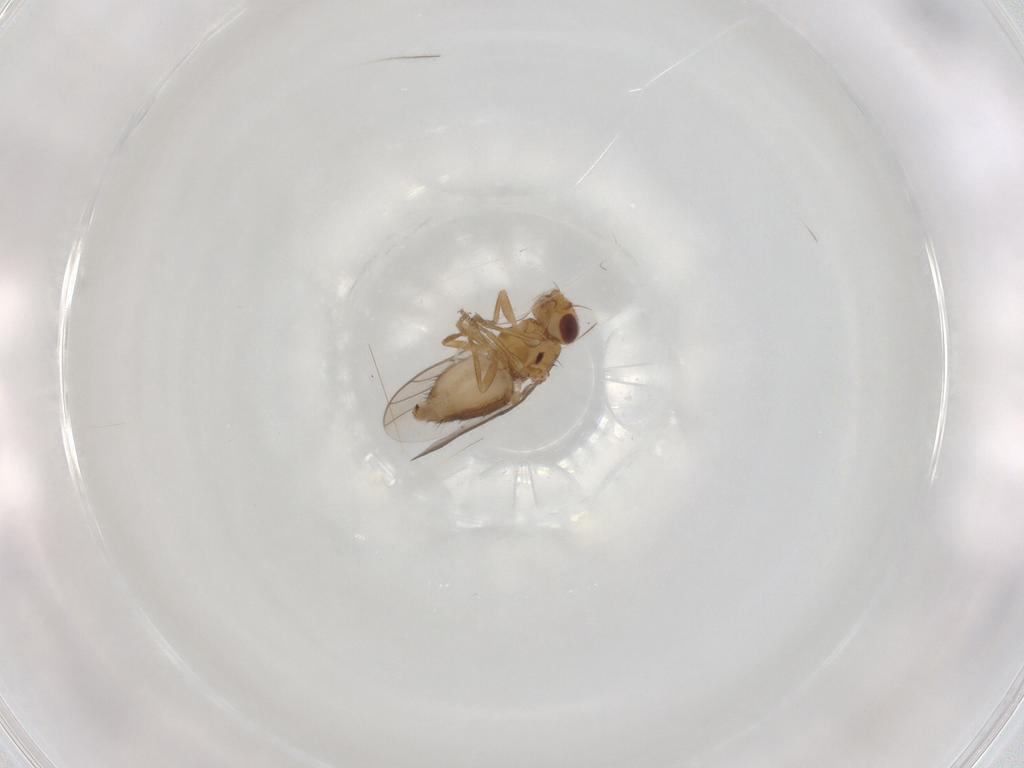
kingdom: Animalia
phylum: Arthropoda
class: Insecta
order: Diptera
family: Chloropidae
